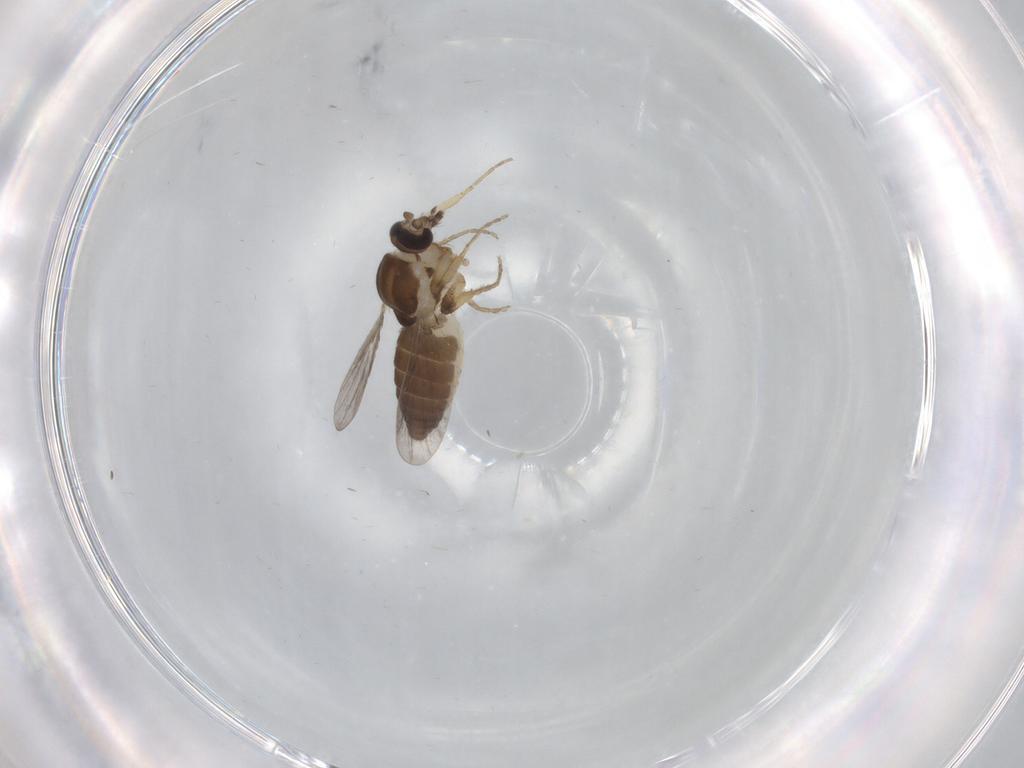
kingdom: Animalia
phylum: Arthropoda
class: Insecta
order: Diptera
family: Ceratopogonidae
